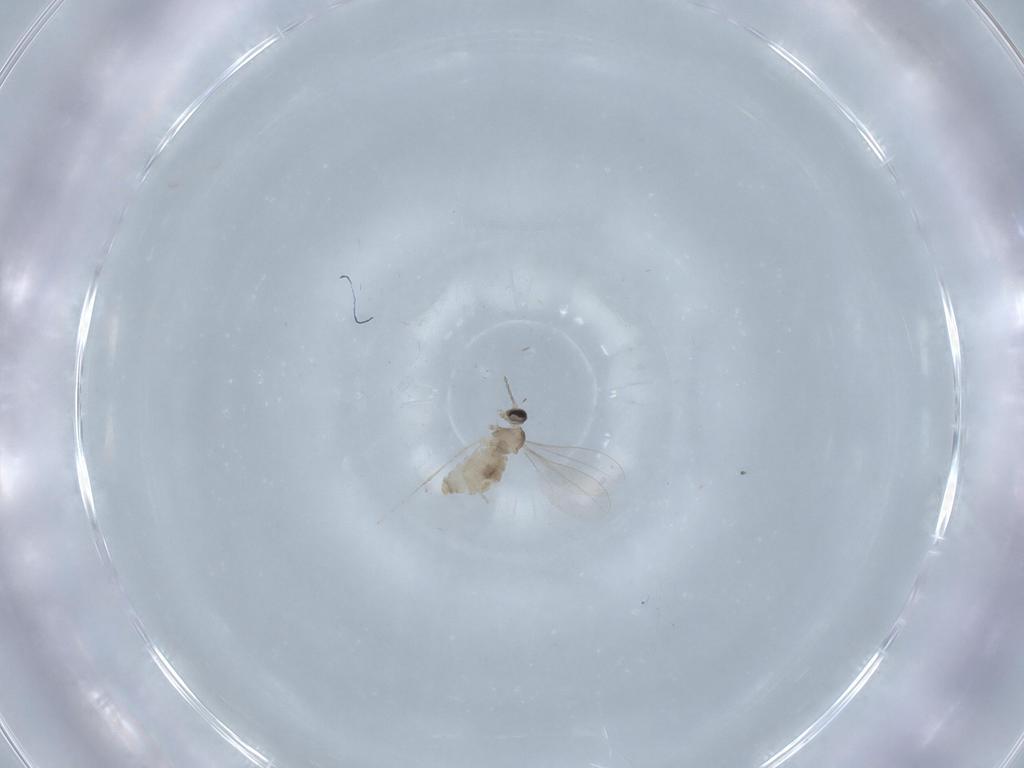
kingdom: Animalia
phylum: Arthropoda
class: Insecta
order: Diptera
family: Cecidomyiidae
